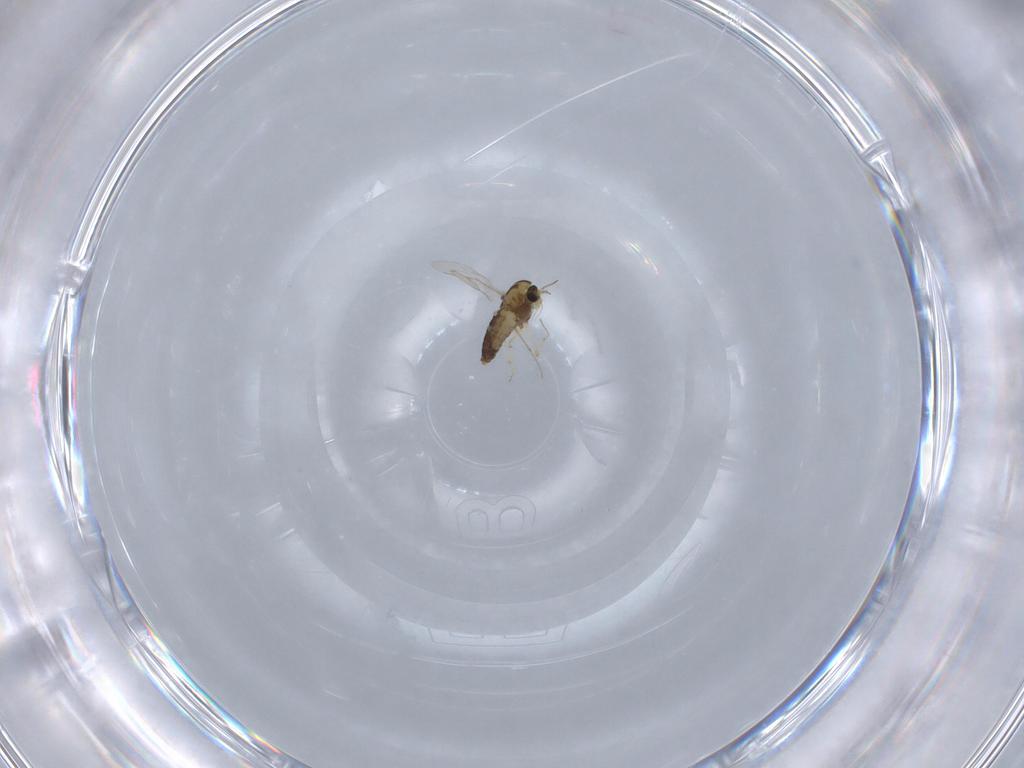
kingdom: Animalia
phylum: Arthropoda
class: Insecta
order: Diptera
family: Chironomidae
